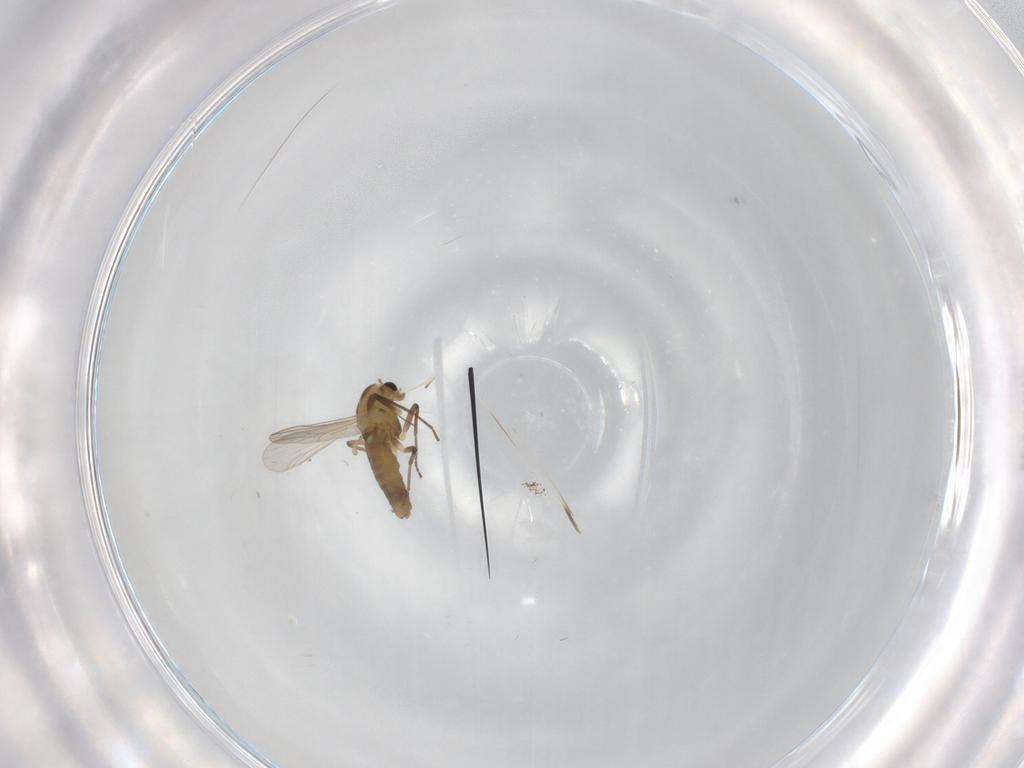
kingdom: Animalia
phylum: Arthropoda
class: Insecta
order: Diptera
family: Chironomidae
